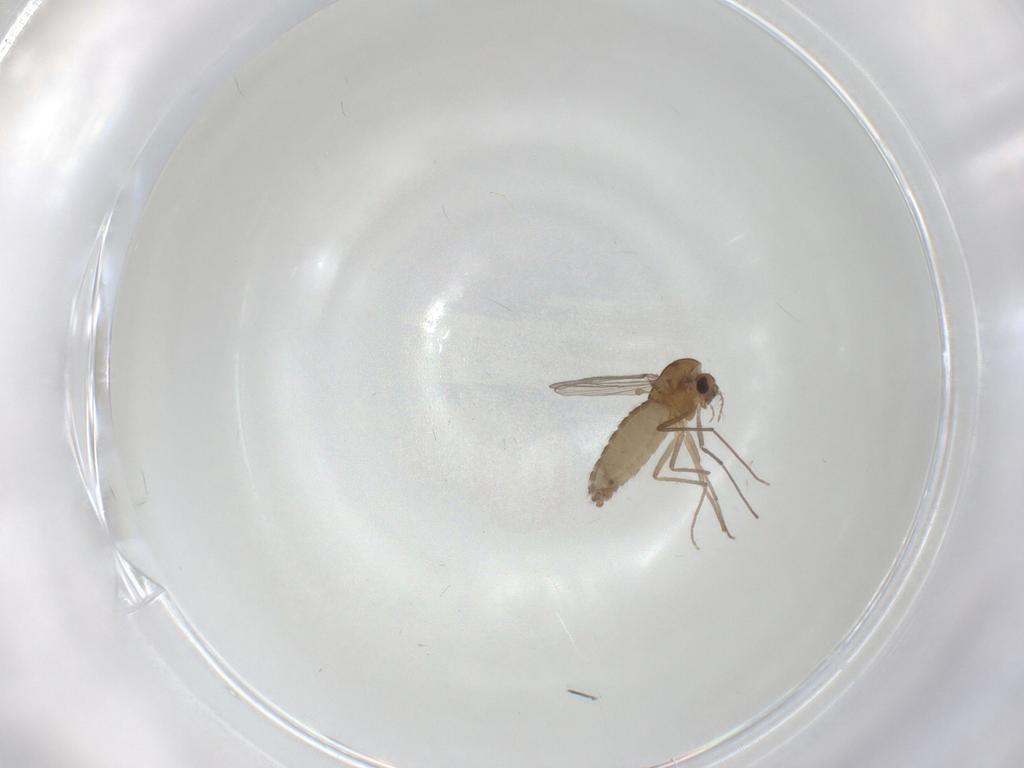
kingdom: Animalia
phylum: Arthropoda
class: Insecta
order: Diptera
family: Chironomidae
